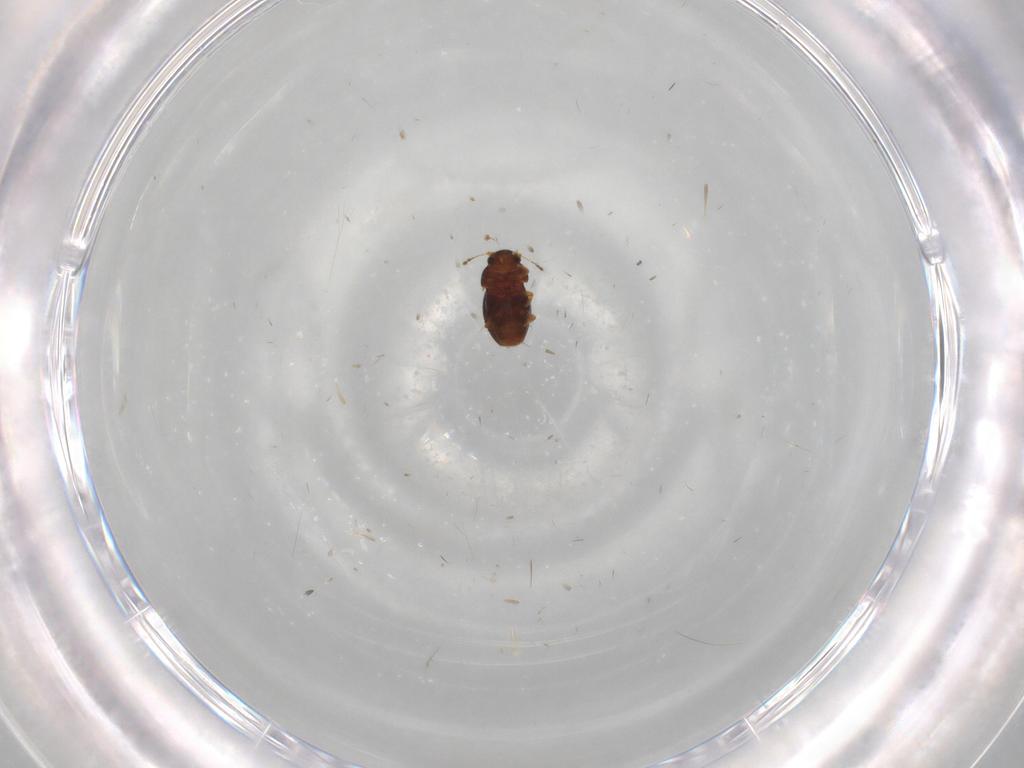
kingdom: Animalia
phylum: Arthropoda
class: Insecta
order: Coleoptera
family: Ptiliidae
